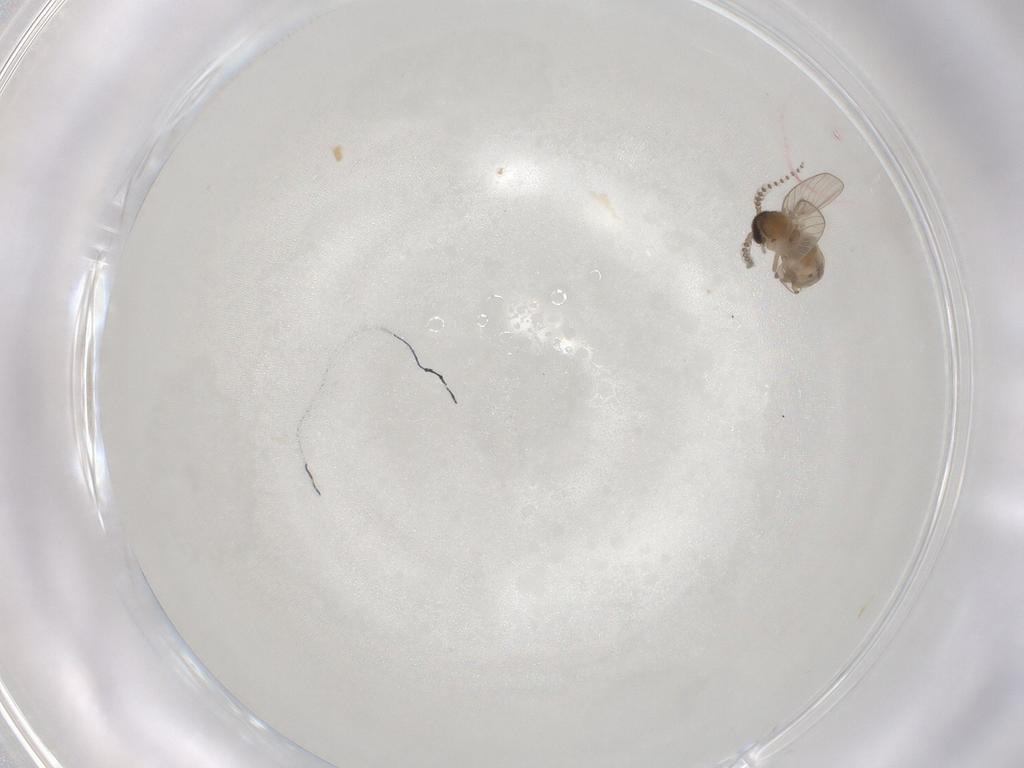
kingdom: Animalia
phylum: Arthropoda
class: Insecta
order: Diptera
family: Psychodidae
